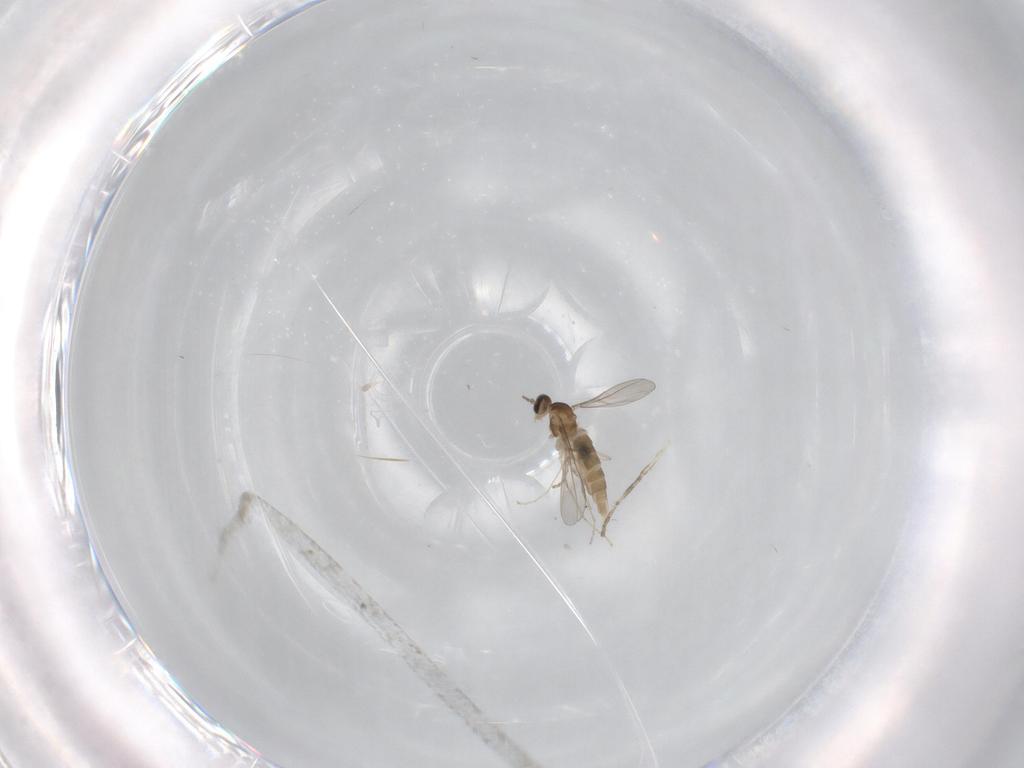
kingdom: Animalia
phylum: Arthropoda
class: Insecta
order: Diptera
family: Cecidomyiidae
